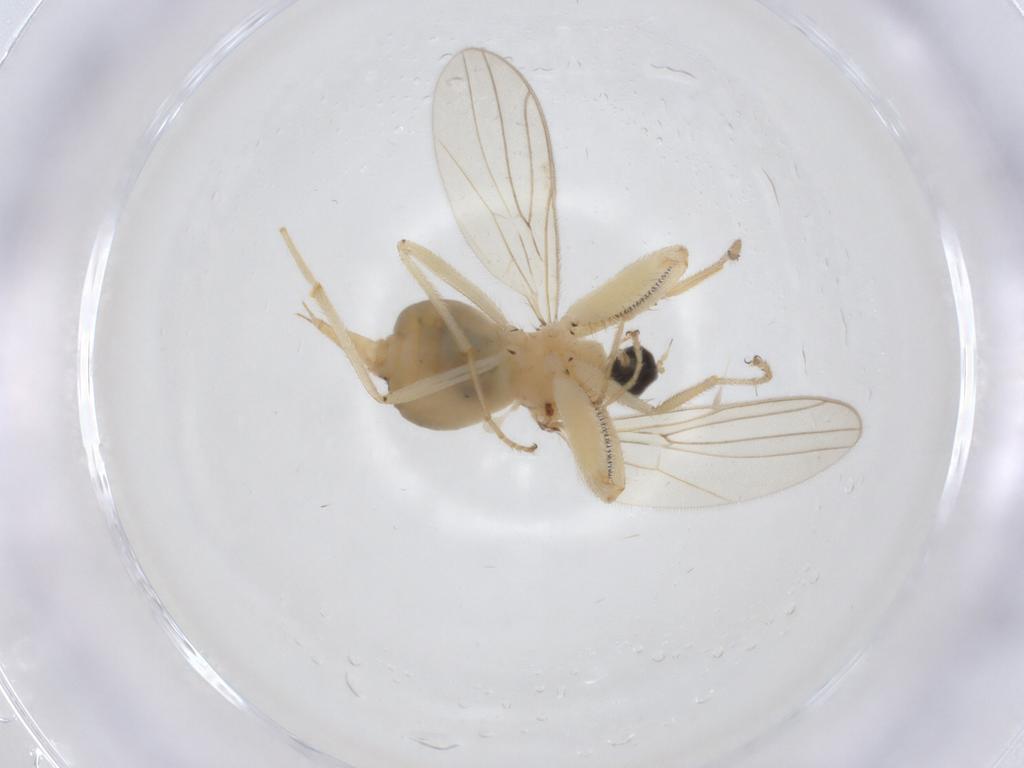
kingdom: Animalia
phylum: Arthropoda
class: Insecta
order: Diptera
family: Hybotidae
